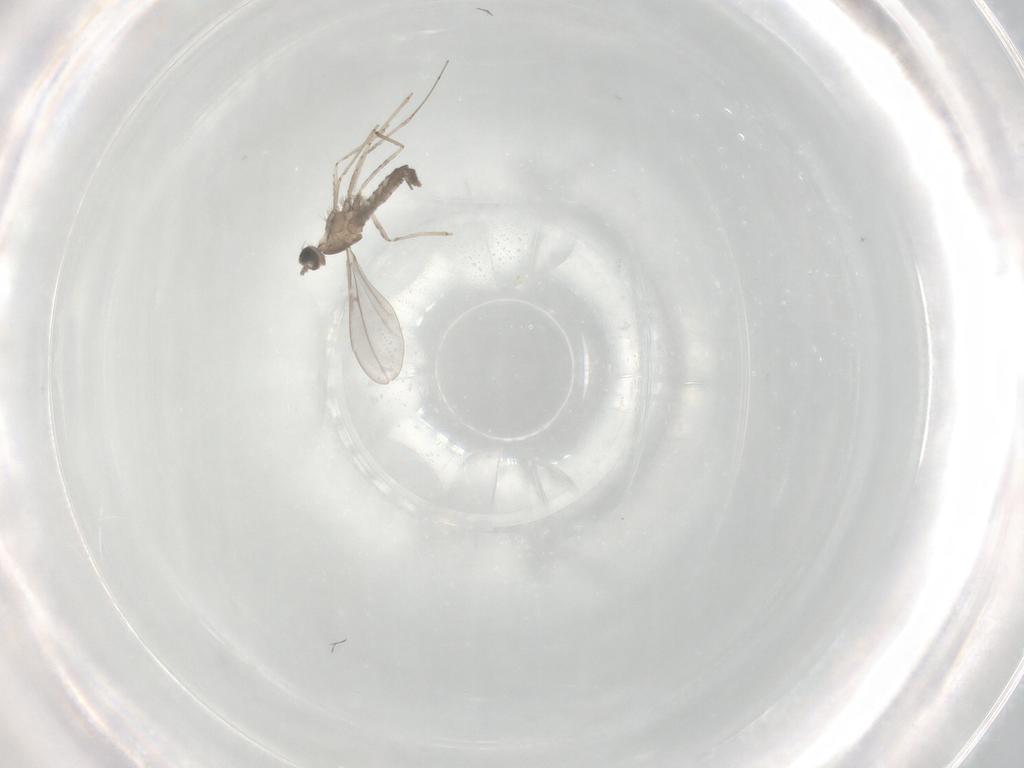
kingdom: Animalia
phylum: Arthropoda
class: Insecta
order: Diptera
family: Cecidomyiidae
